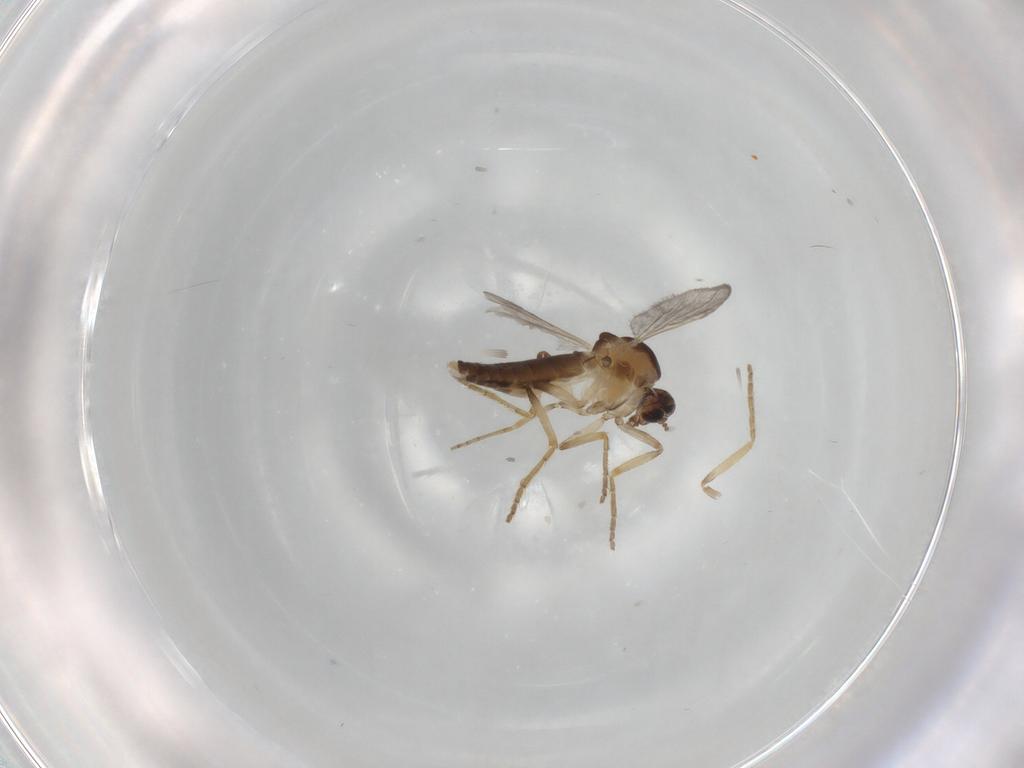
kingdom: Animalia
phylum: Arthropoda
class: Insecta
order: Diptera
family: Ceratopogonidae
